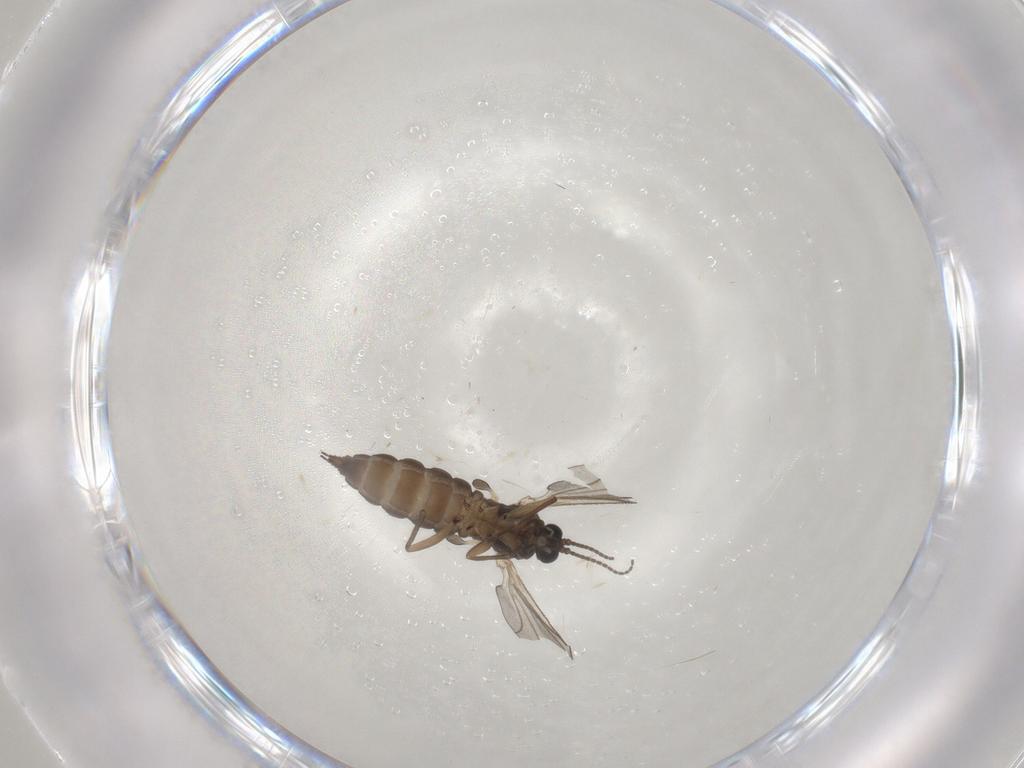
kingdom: Animalia
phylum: Arthropoda
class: Insecta
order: Diptera
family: Sciaridae
